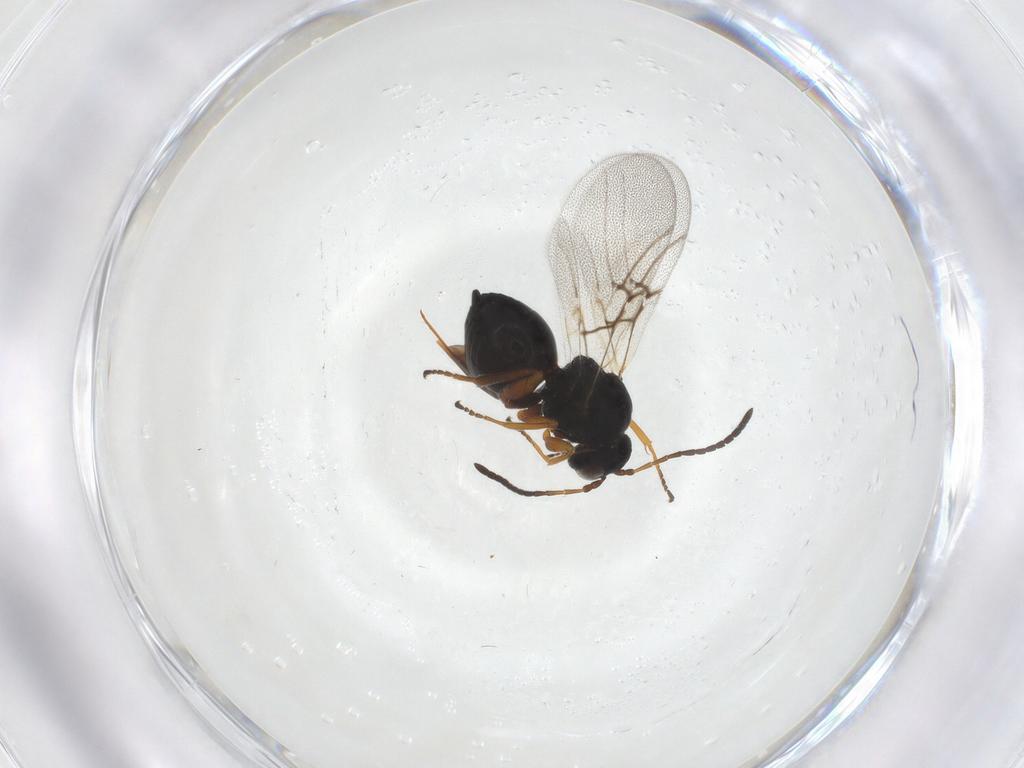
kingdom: Animalia
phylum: Arthropoda
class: Insecta
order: Hymenoptera
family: Cynipidae
